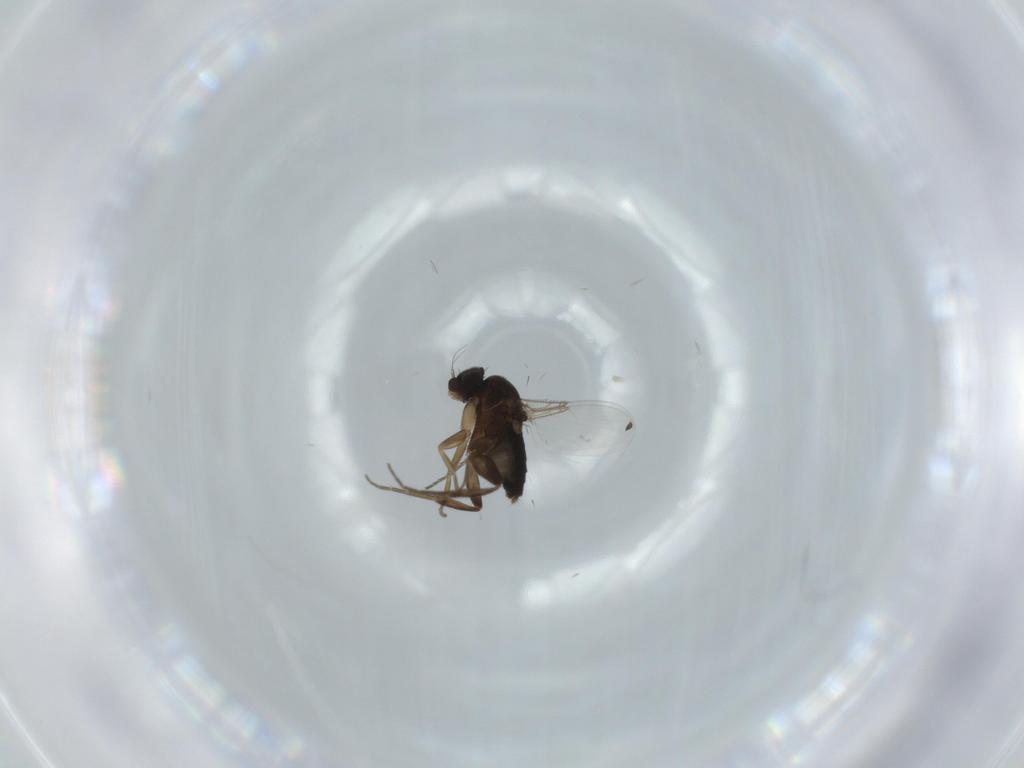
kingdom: Animalia
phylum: Arthropoda
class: Insecta
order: Diptera
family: Phoridae
